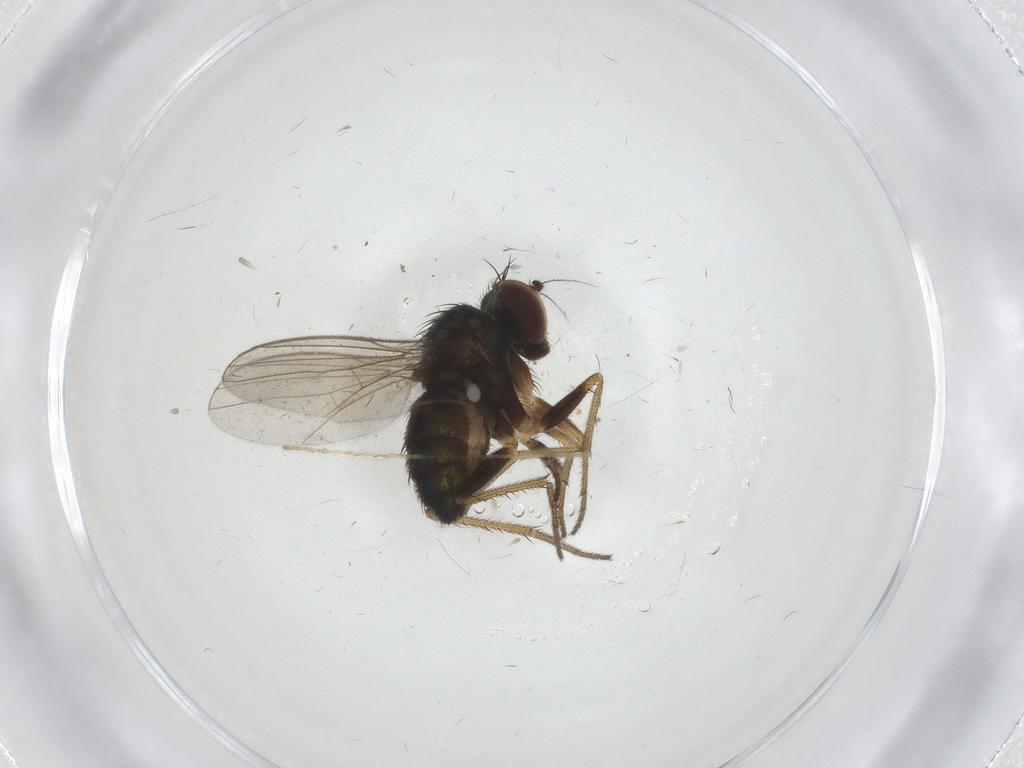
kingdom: Animalia
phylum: Arthropoda
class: Insecta
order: Diptera
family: Limoniidae
